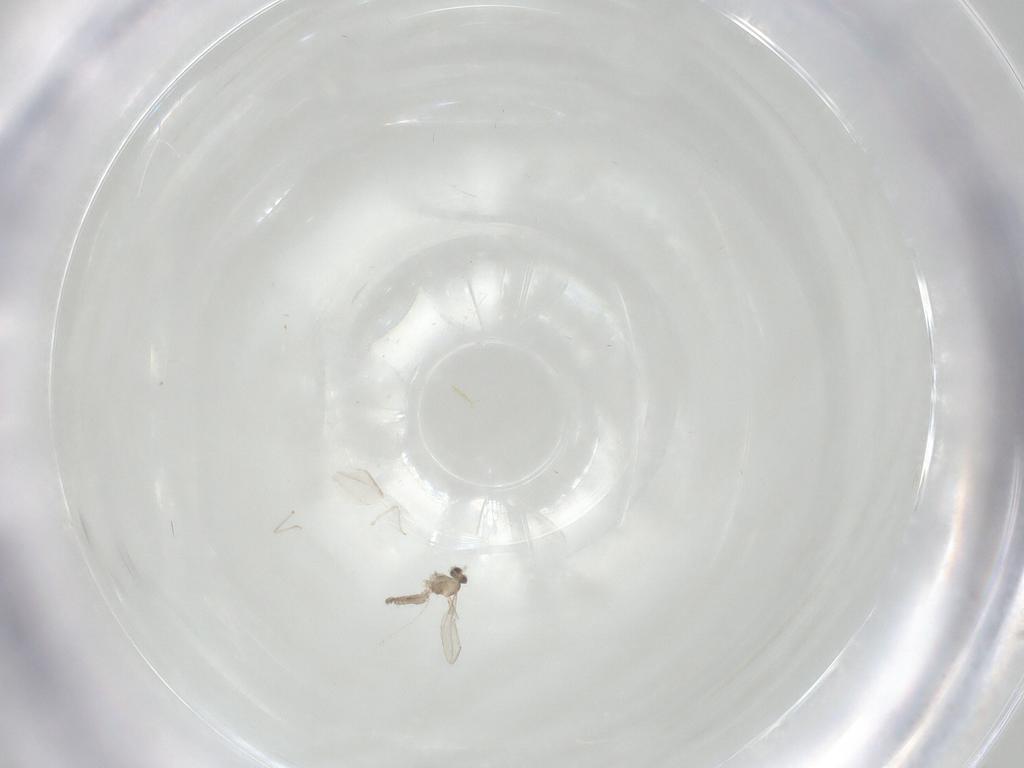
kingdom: Animalia
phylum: Arthropoda
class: Insecta
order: Diptera
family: Cecidomyiidae
